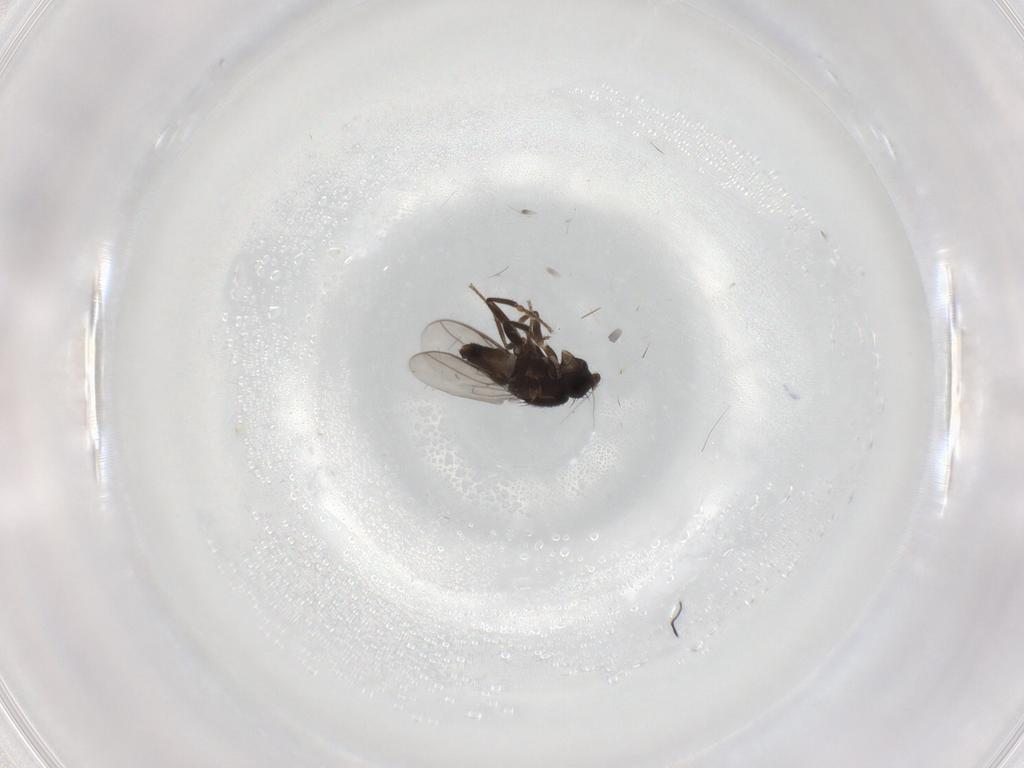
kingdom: Animalia
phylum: Arthropoda
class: Insecta
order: Diptera
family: Sphaeroceridae
